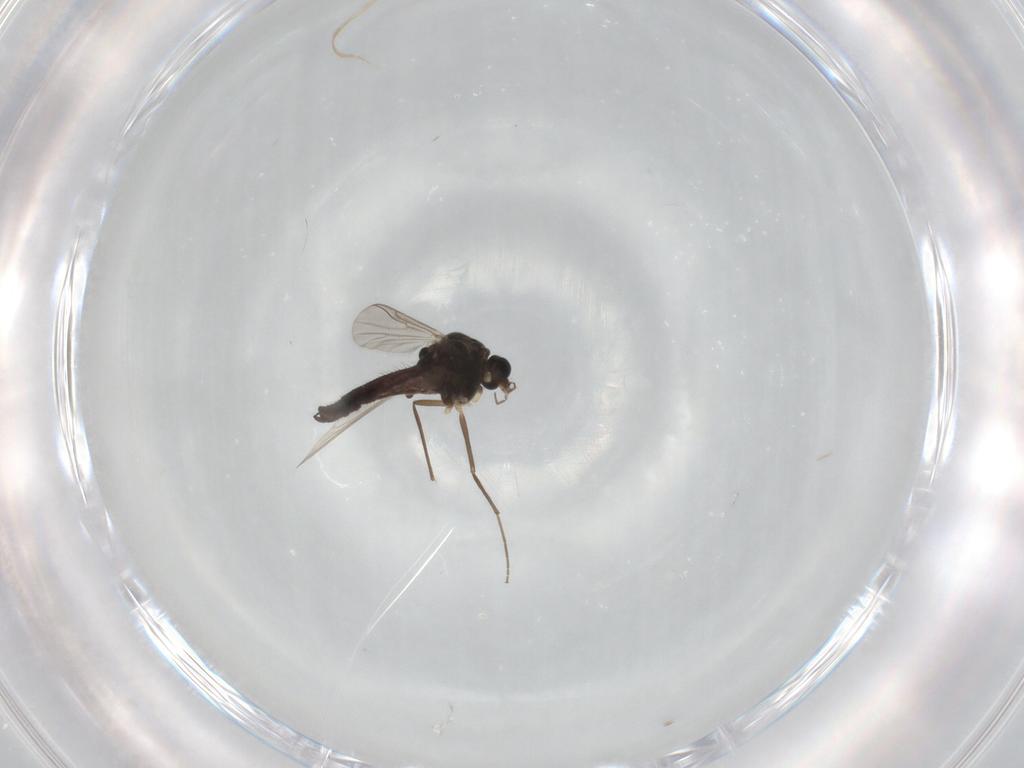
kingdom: Animalia
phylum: Arthropoda
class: Insecta
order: Diptera
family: Chironomidae
